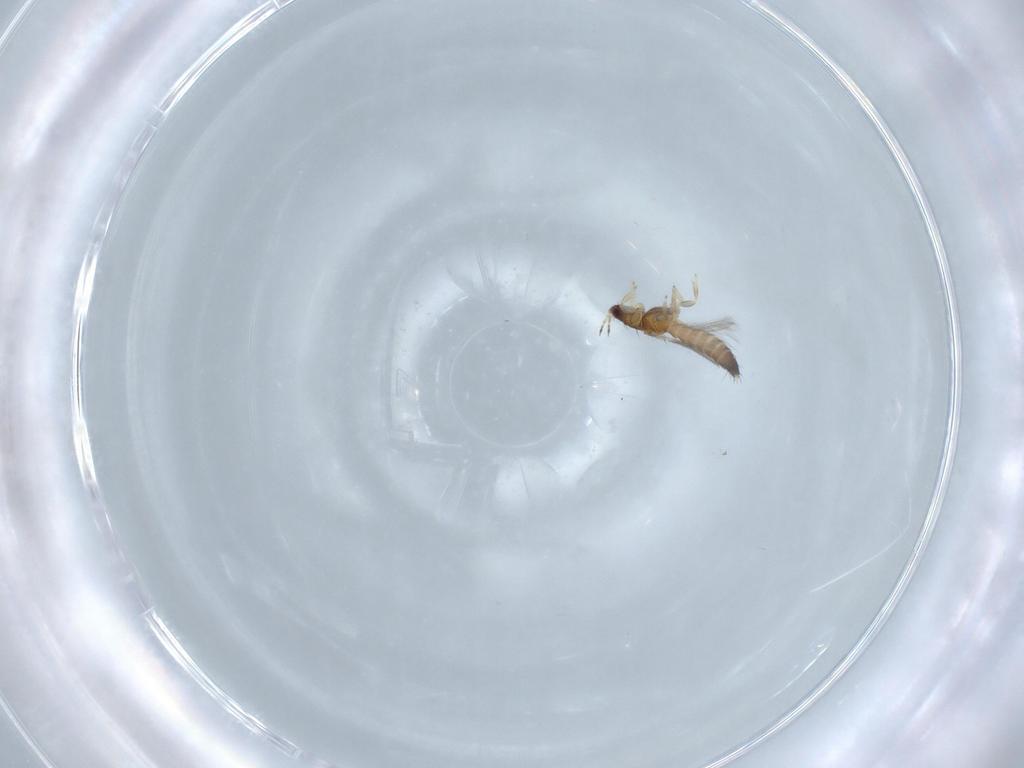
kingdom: Animalia
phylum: Arthropoda
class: Insecta
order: Thysanoptera
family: Thripidae
